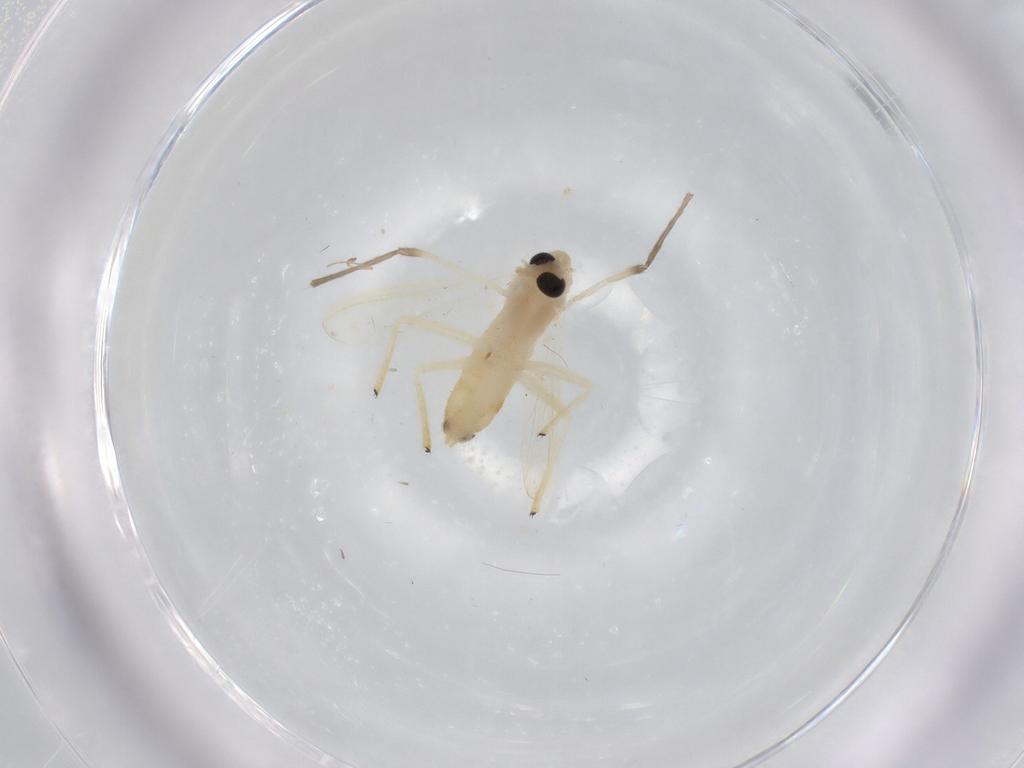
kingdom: Animalia
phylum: Arthropoda
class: Insecta
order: Diptera
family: Chironomidae
